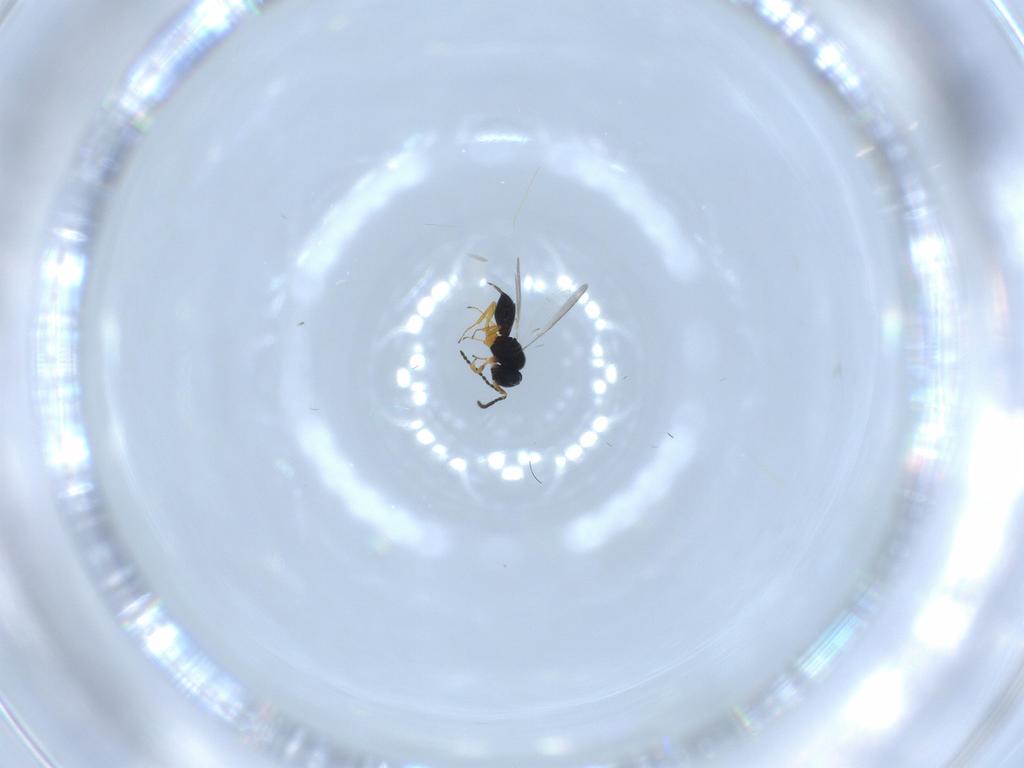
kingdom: Animalia
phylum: Arthropoda
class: Insecta
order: Hymenoptera
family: Scelionidae
